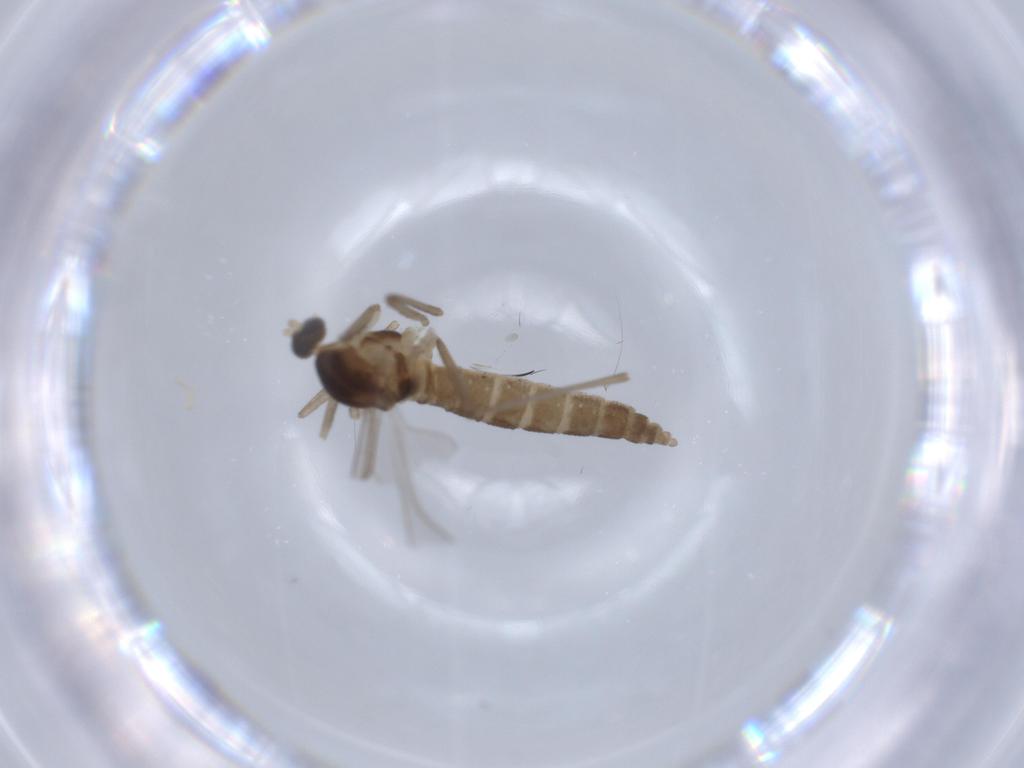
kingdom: Animalia
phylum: Arthropoda
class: Insecta
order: Diptera
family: Cecidomyiidae
